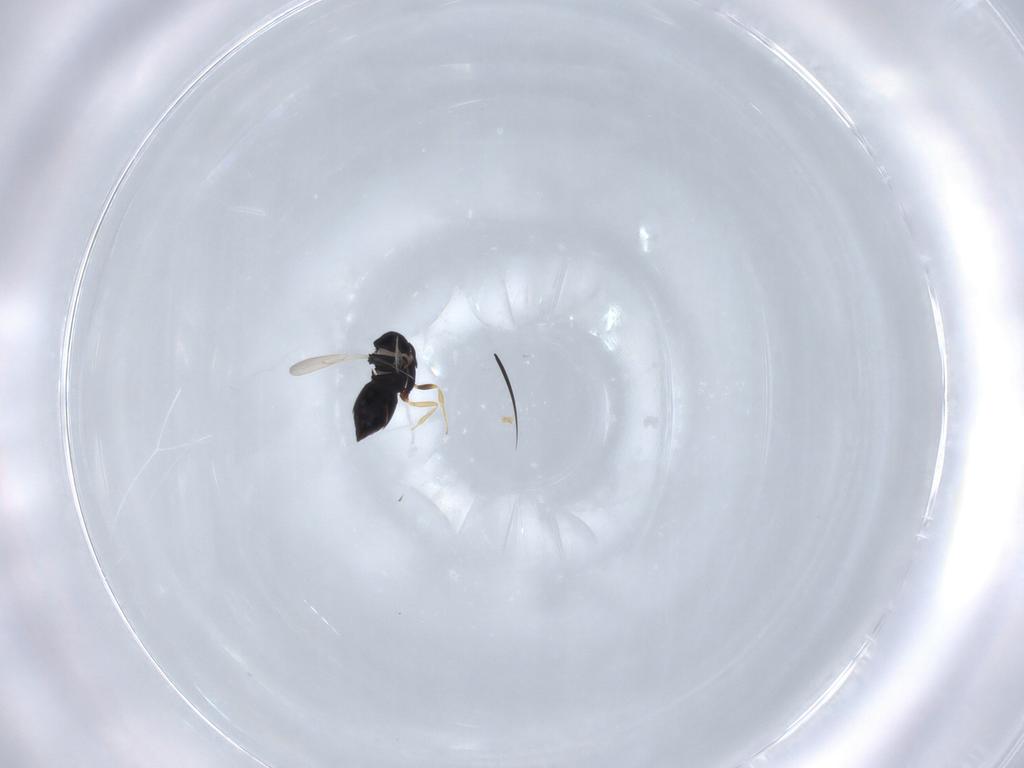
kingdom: Animalia
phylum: Arthropoda
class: Insecta
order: Hymenoptera
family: Scelionidae
